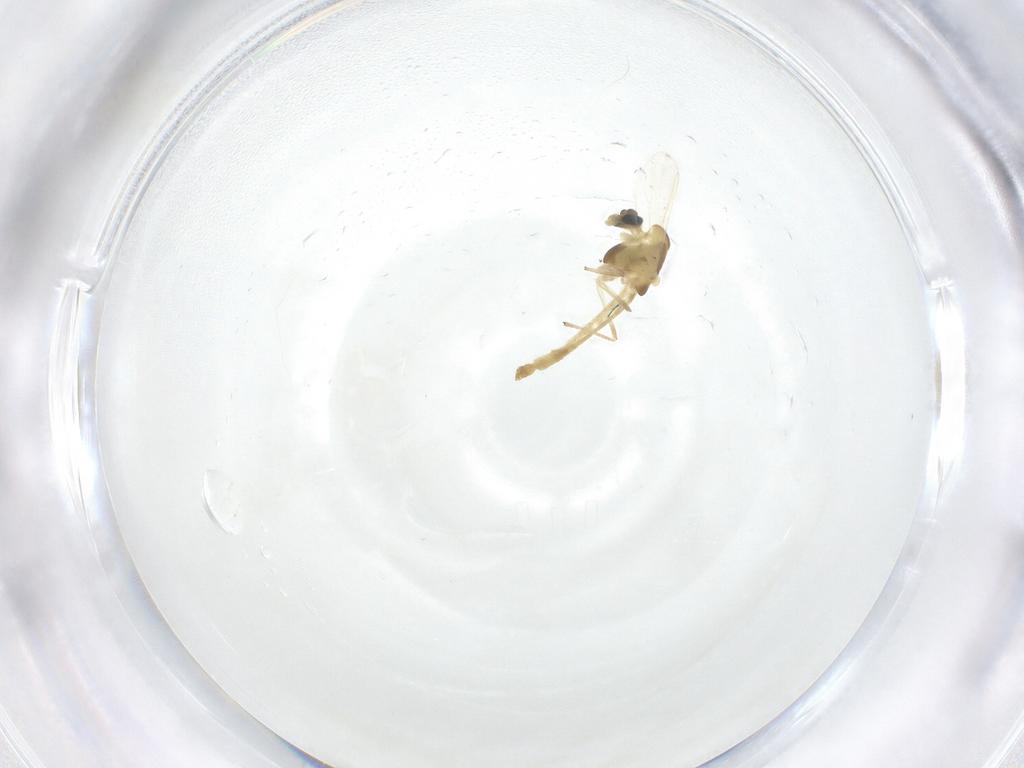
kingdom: Animalia
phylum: Arthropoda
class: Insecta
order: Diptera
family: Chironomidae
